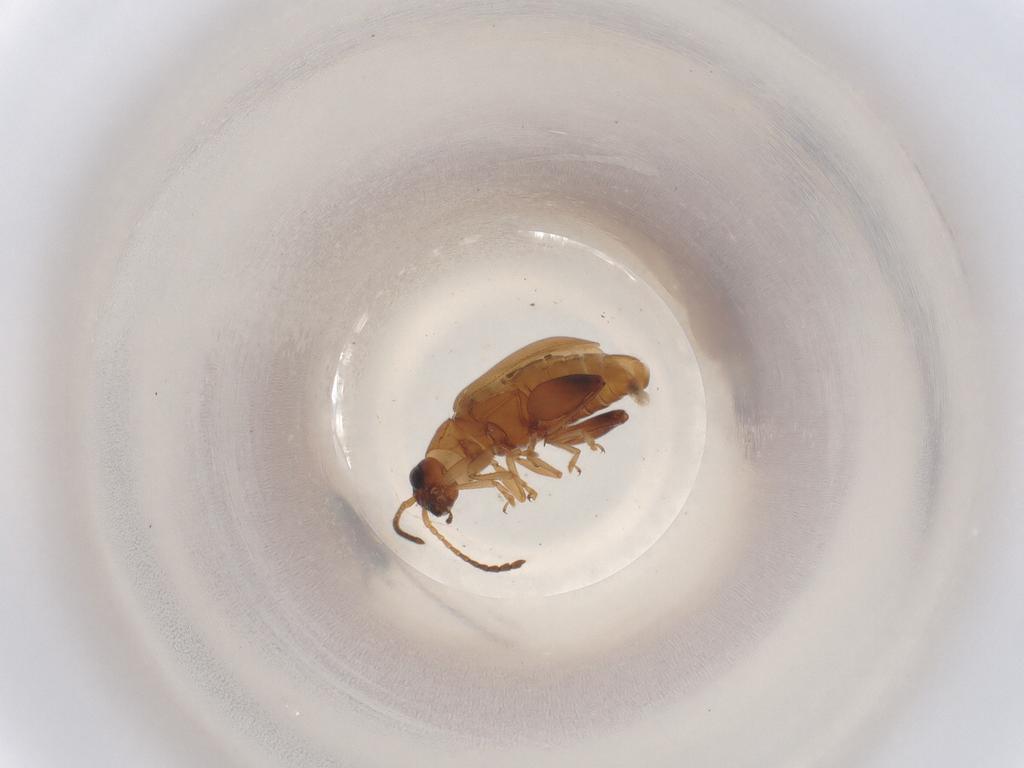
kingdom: Animalia
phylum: Arthropoda
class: Insecta
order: Coleoptera
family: Chrysomelidae
